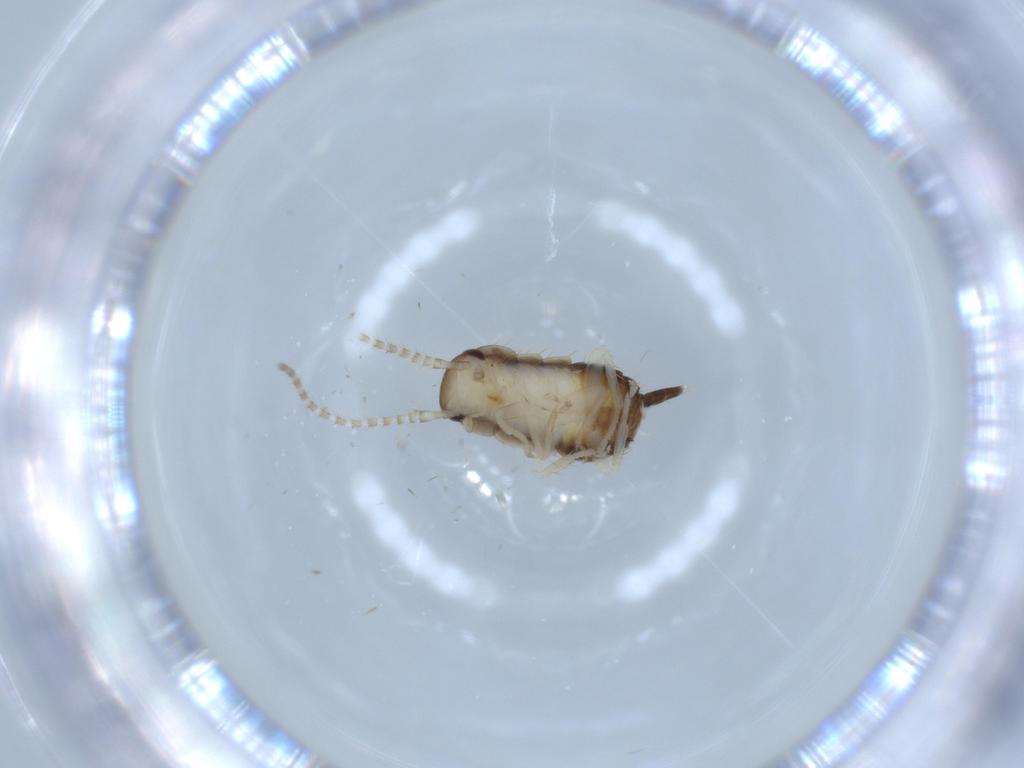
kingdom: Animalia
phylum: Arthropoda
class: Insecta
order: Blattodea
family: Ectobiidae
